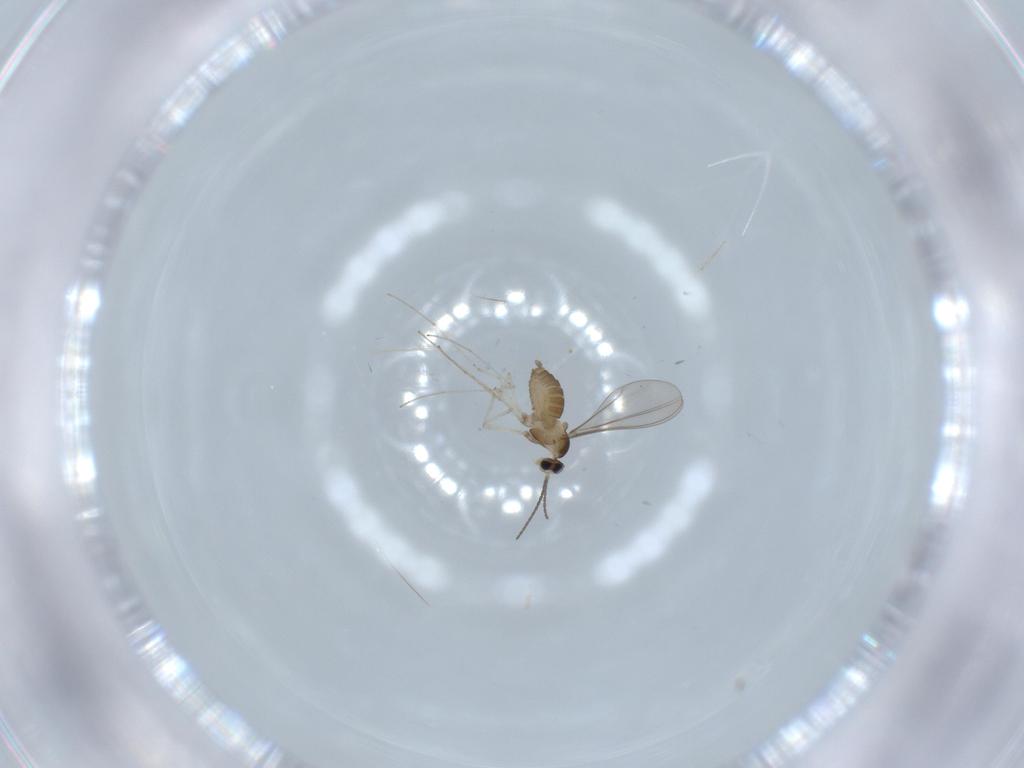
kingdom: Animalia
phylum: Arthropoda
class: Insecta
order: Diptera
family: Cecidomyiidae
